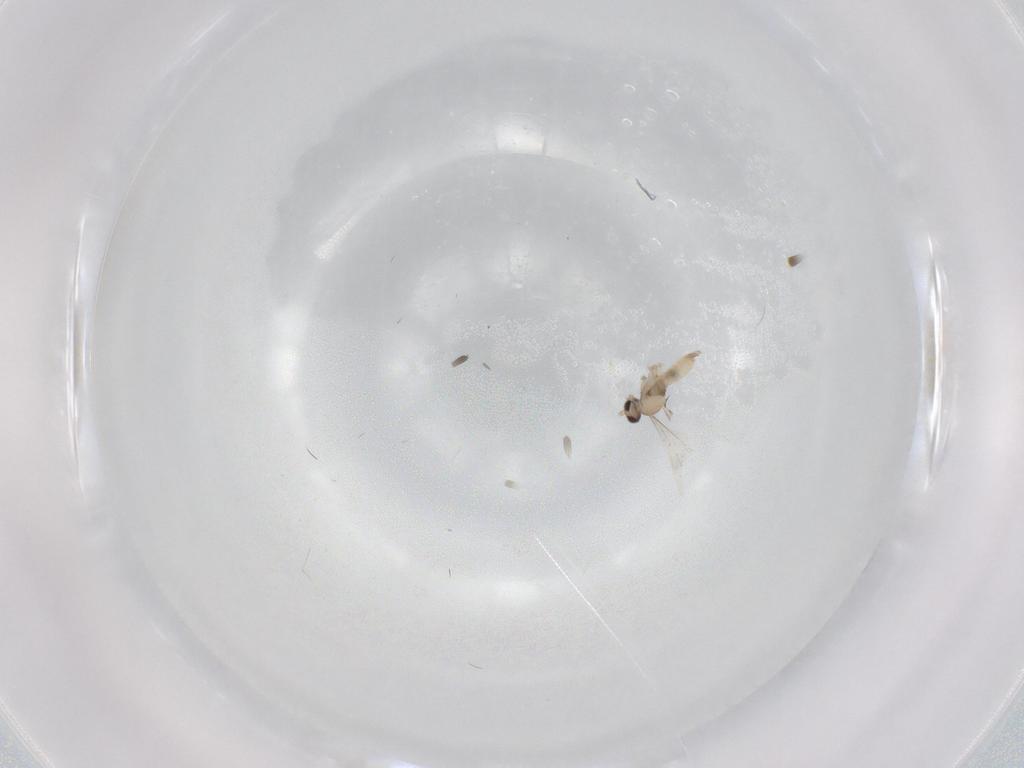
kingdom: Animalia
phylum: Arthropoda
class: Insecta
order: Diptera
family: Cecidomyiidae
